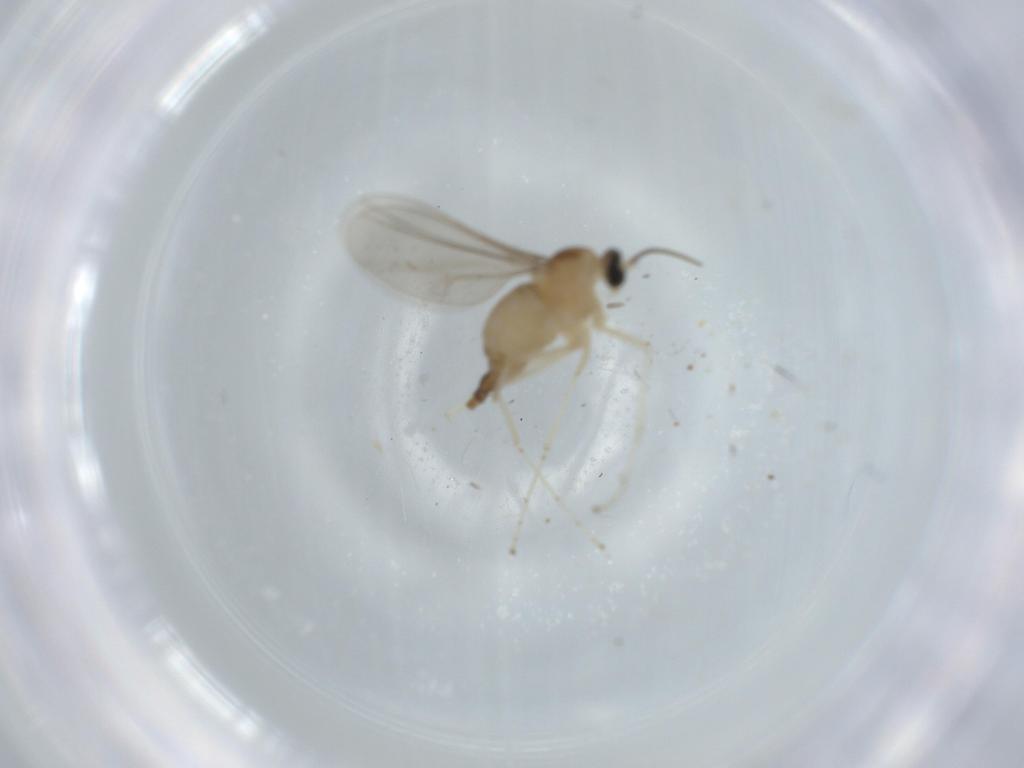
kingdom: Animalia
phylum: Arthropoda
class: Insecta
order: Diptera
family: Cecidomyiidae
